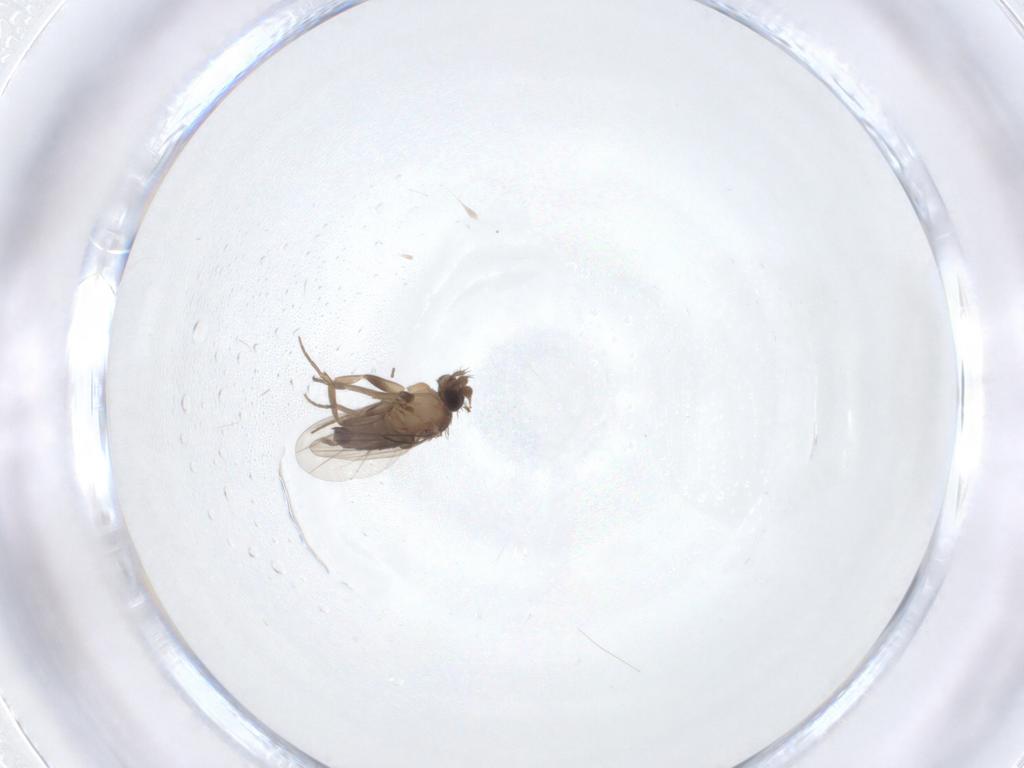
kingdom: Animalia
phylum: Arthropoda
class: Insecta
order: Diptera
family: Phoridae
